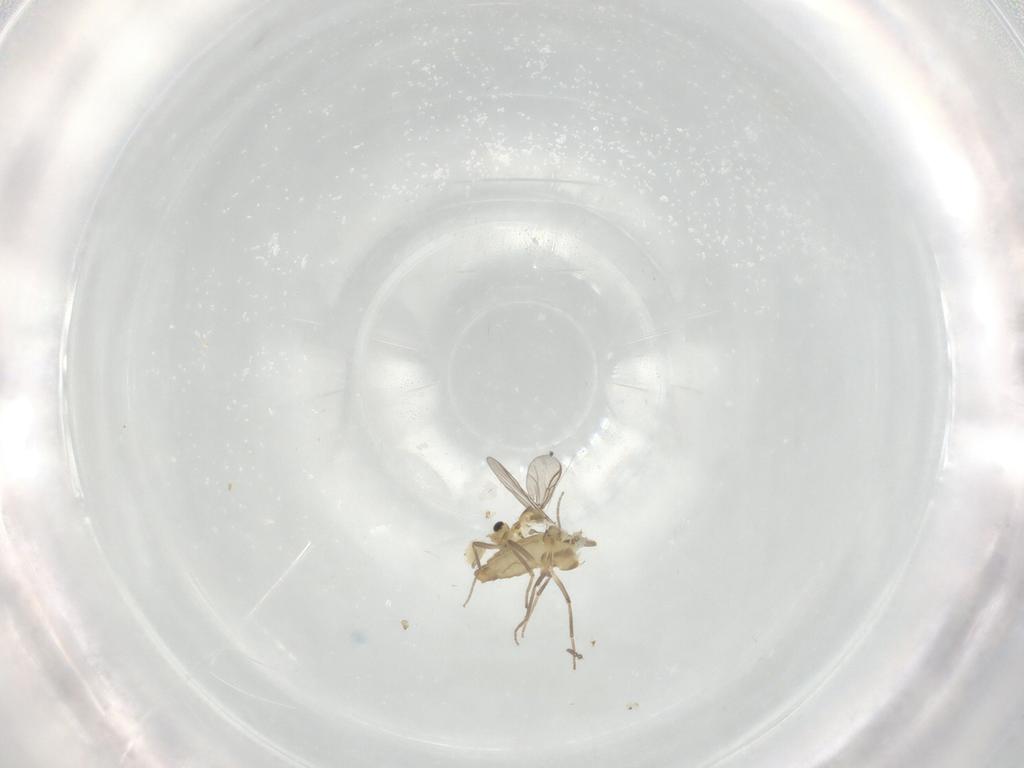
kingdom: Animalia
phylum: Arthropoda
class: Insecta
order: Diptera
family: Chironomidae
